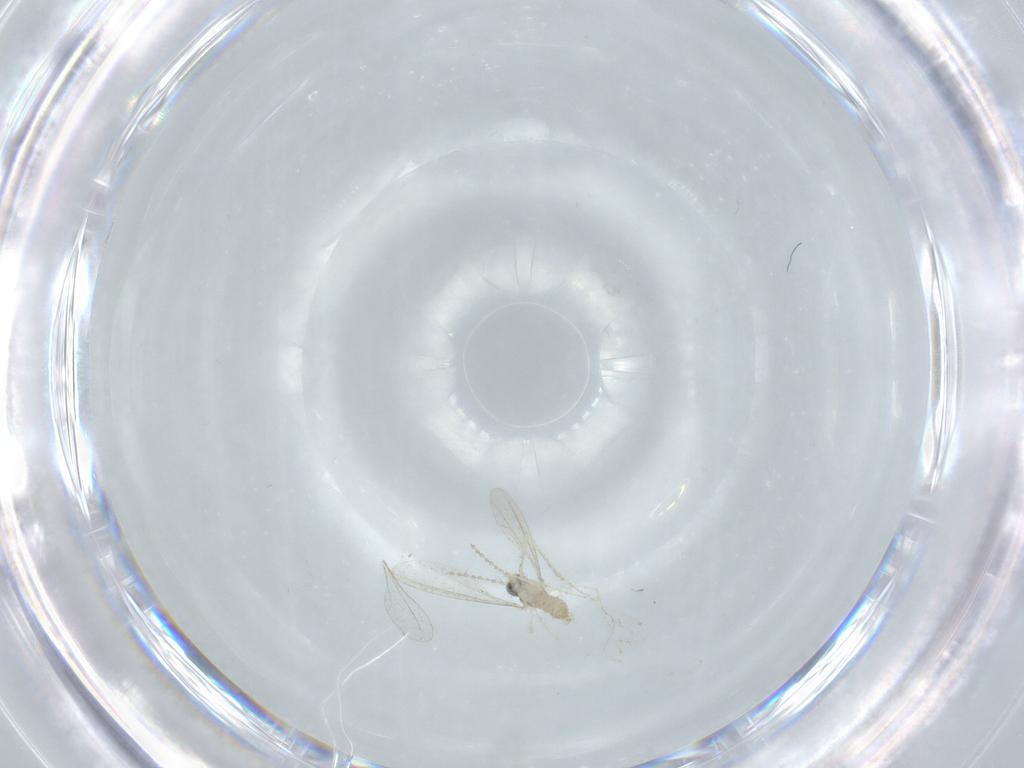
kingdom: Animalia
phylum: Arthropoda
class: Insecta
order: Diptera
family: Cecidomyiidae
